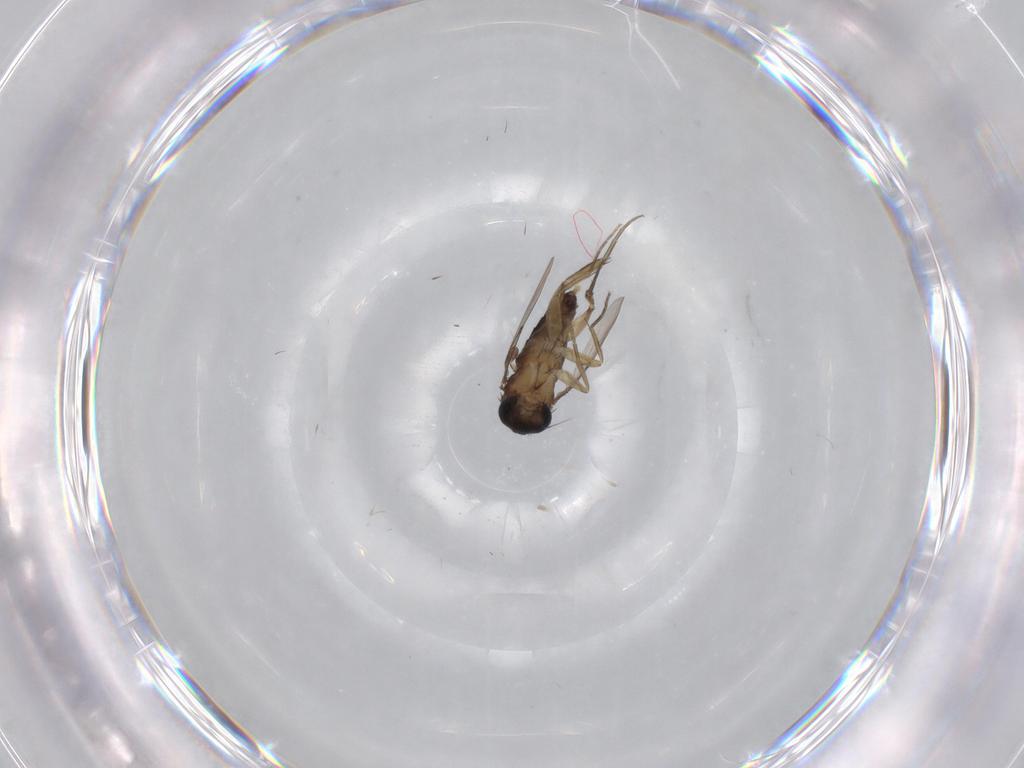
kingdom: Animalia
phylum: Arthropoda
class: Insecta
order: Diptera
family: Phoridae
